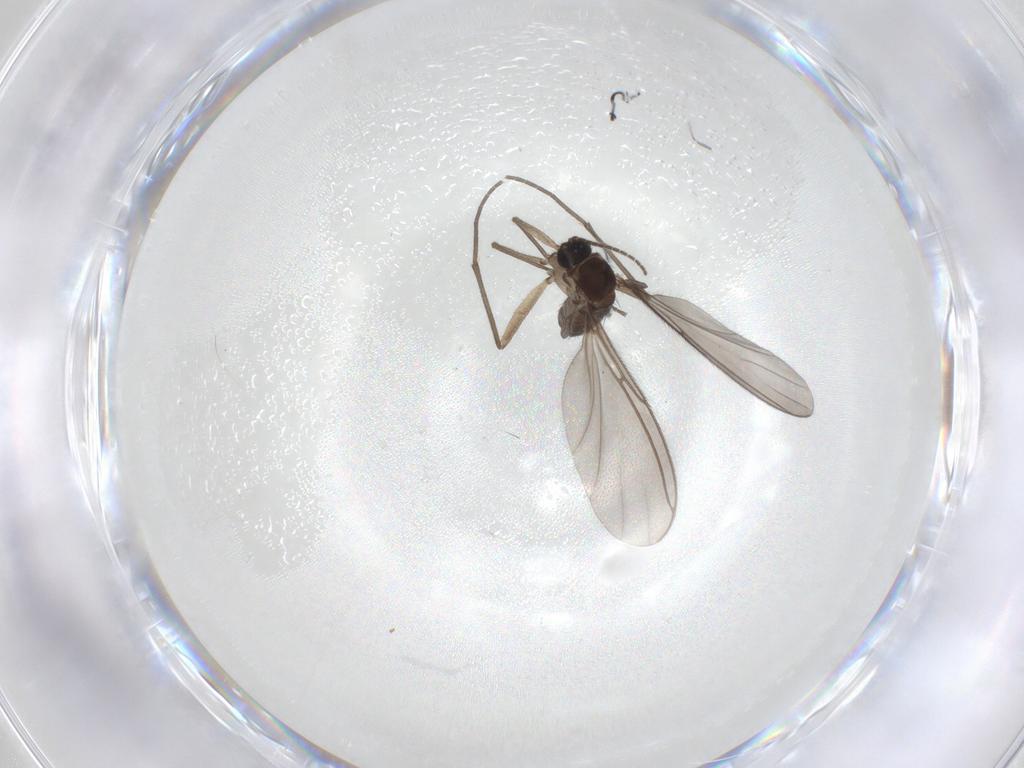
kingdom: Animalia
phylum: Arthropoda
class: Insecta
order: Diptera
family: Sciaridae
